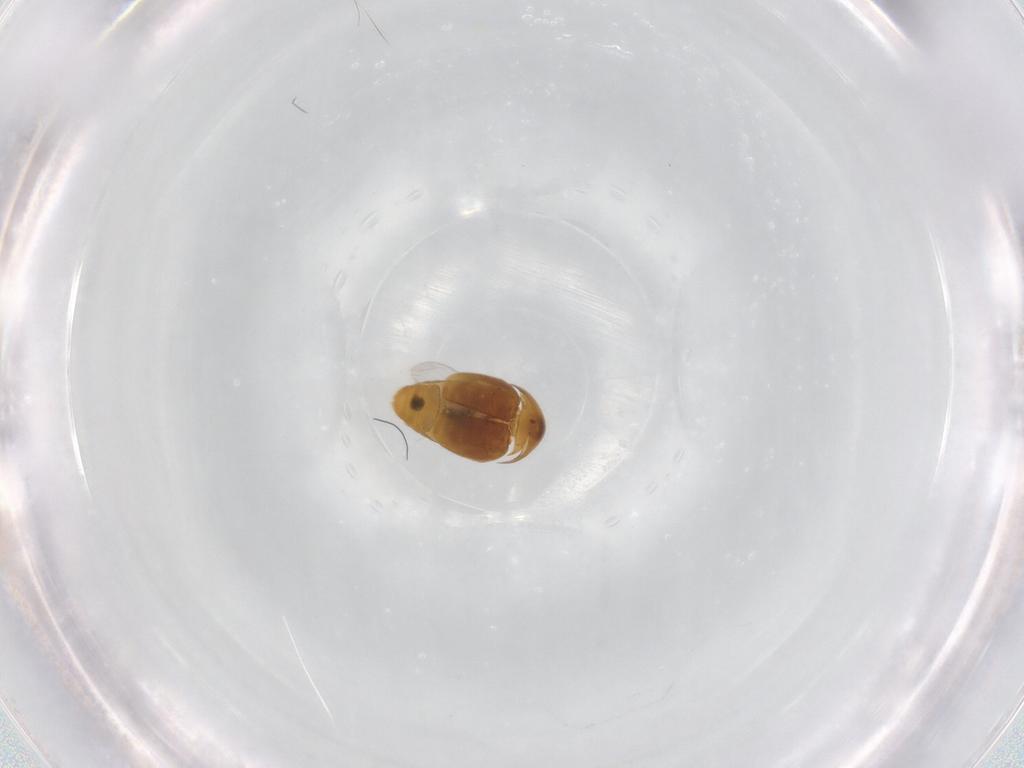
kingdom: Animalia
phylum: Arthropoda
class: Insecta
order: Coleoptera
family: Corylophidae
